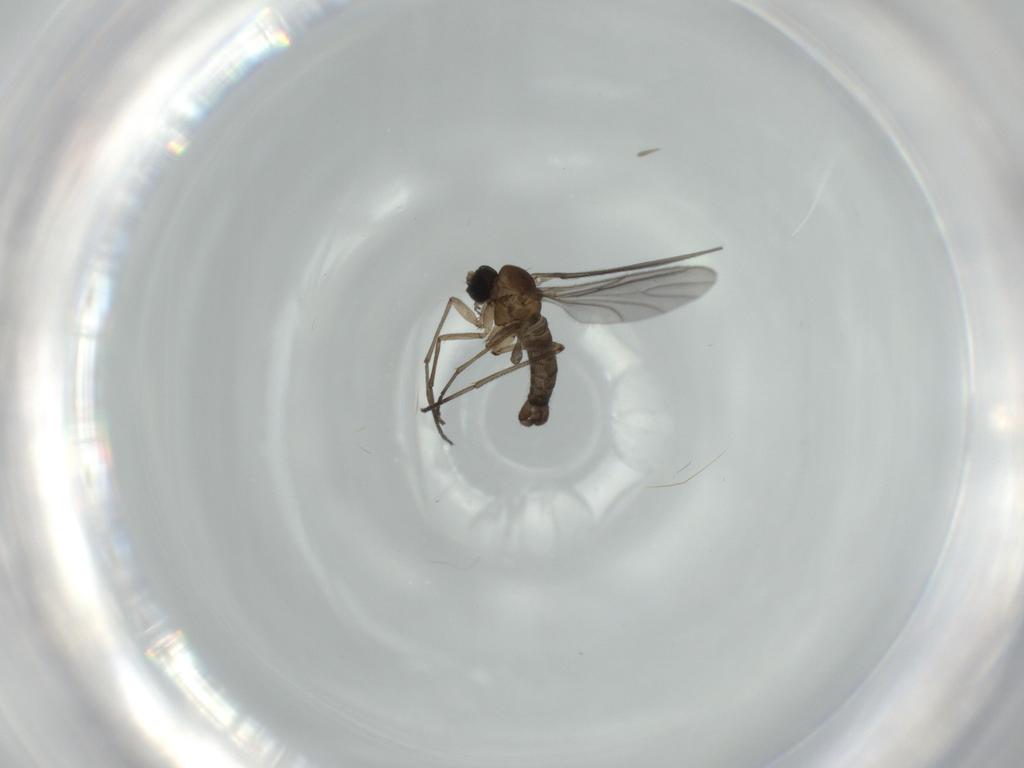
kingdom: Animalia
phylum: Arthropoda
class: Insecta
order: Diptera
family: Sciaridae
